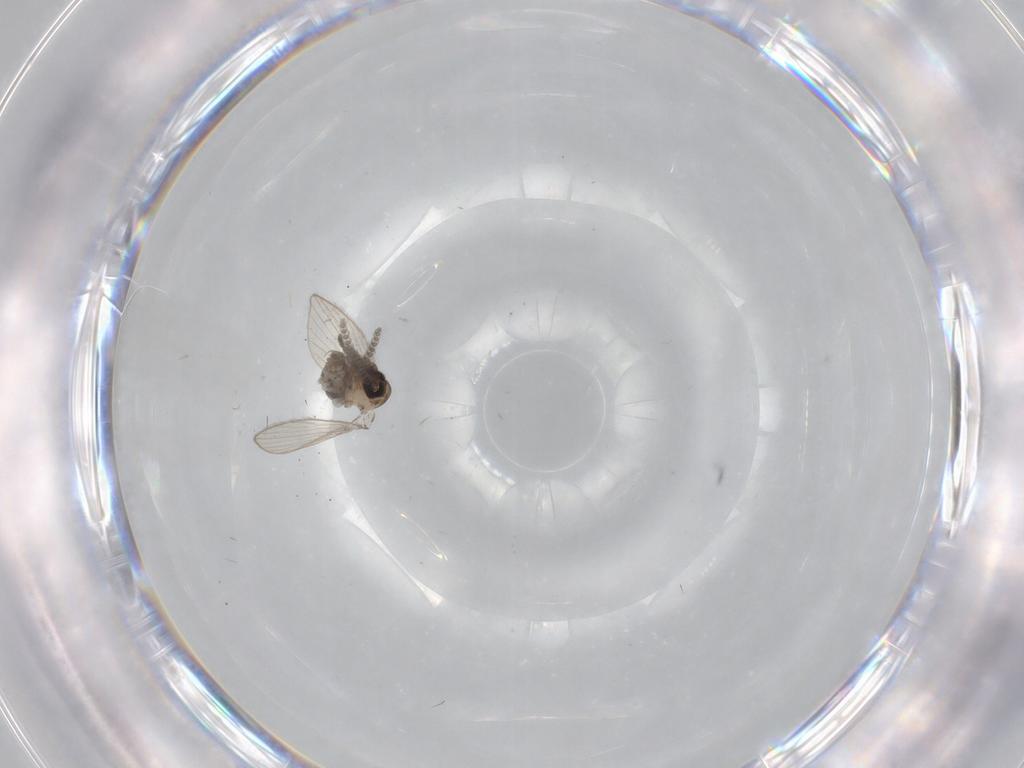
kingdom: Animalia
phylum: Arthropoda
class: Insecta
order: Diptera
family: Psychodidae
